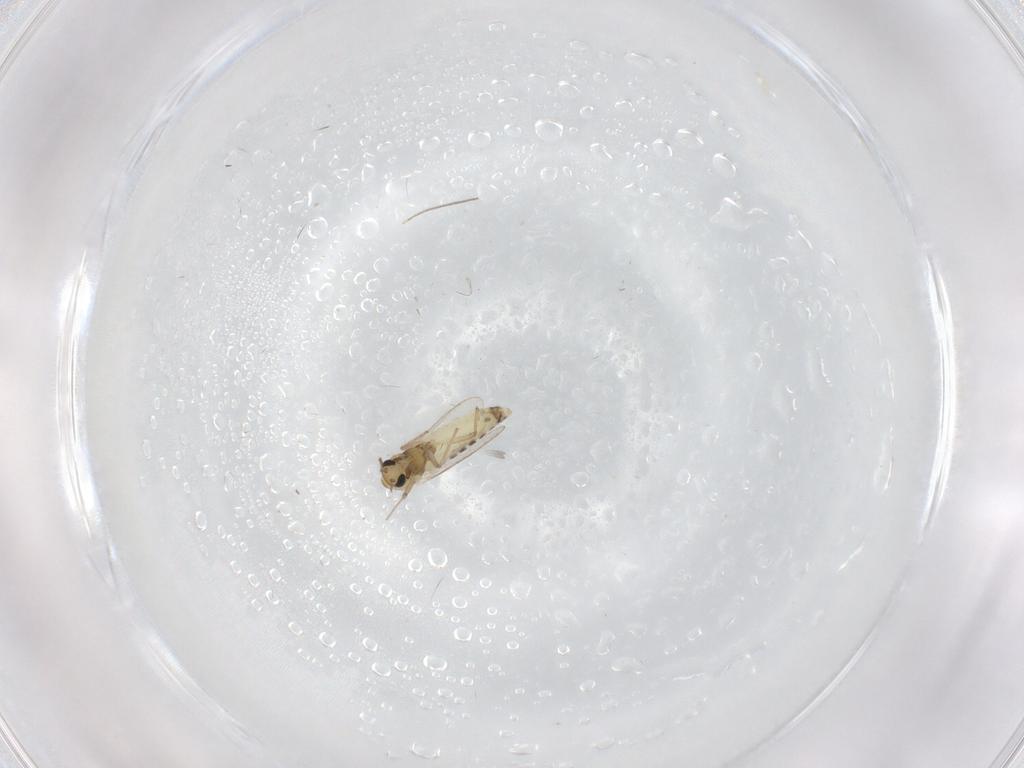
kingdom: Animalia
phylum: Arthropoda
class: Insecta
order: Diptera
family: Chironomidae
